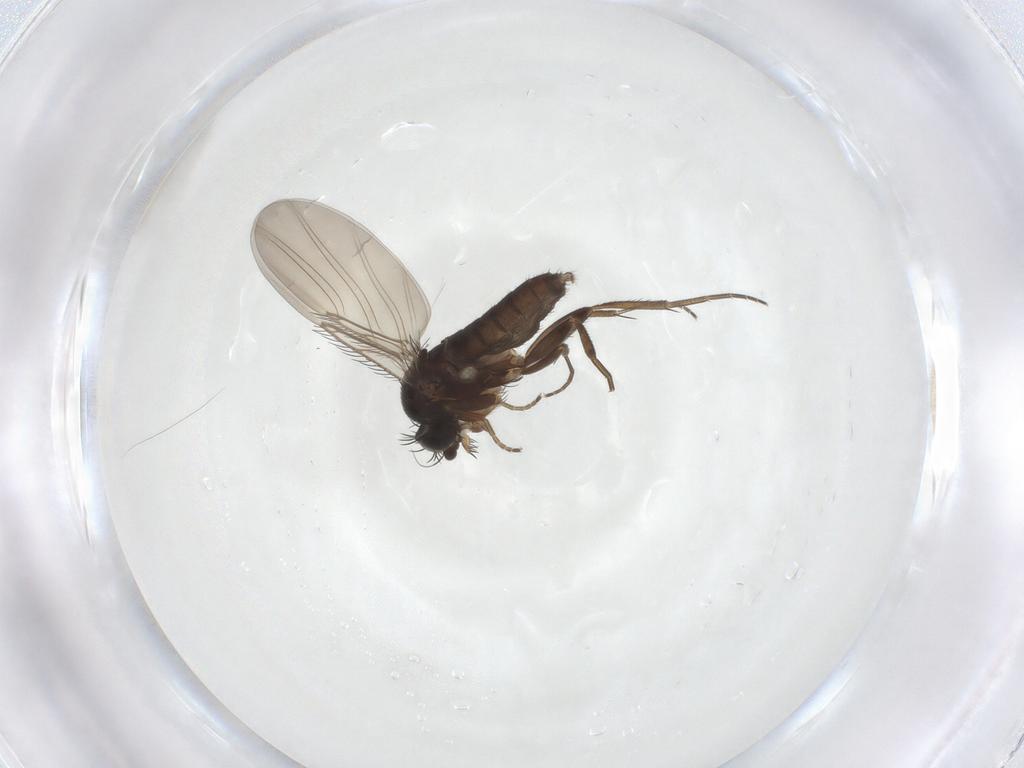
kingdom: Animalia
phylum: Arthropoda
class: Insecta
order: Diptera
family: Phoridae
